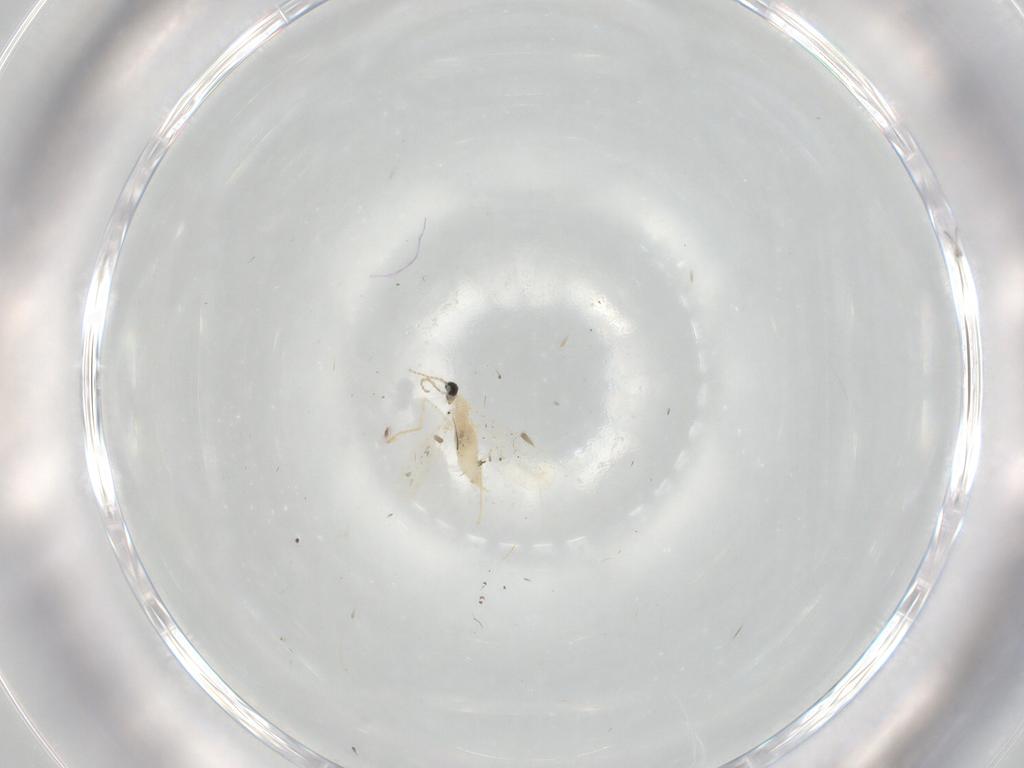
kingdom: Animalia
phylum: Arthropoda
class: Insecta
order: Diptera
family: Cecidomyiidae
